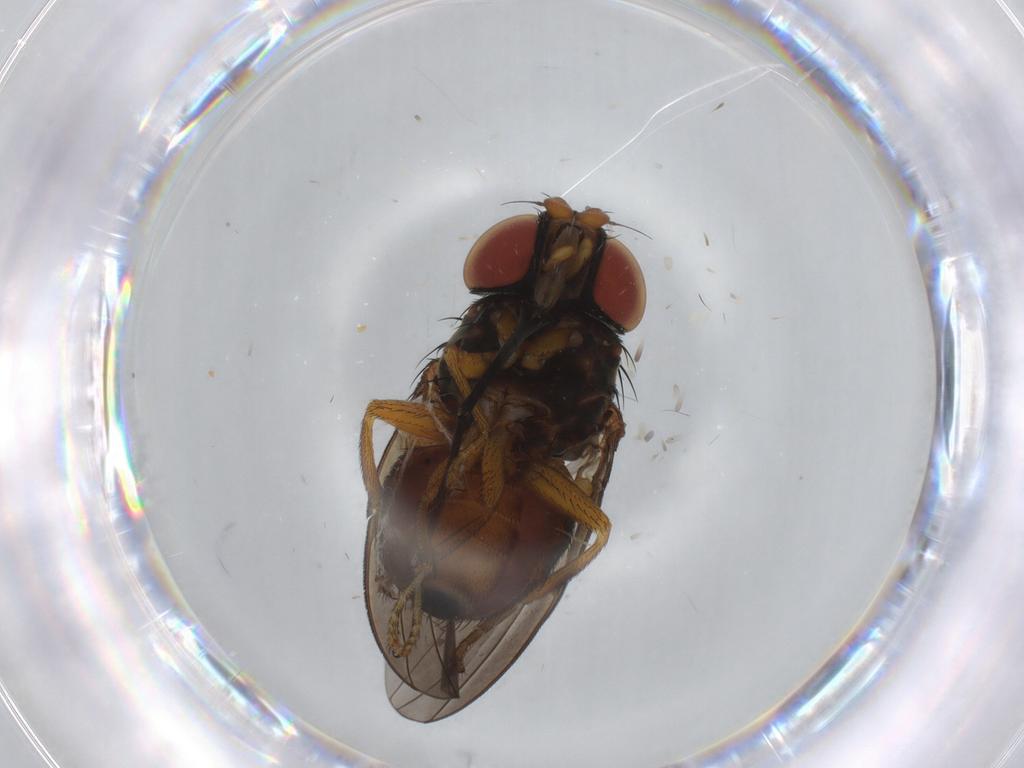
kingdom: Animalia
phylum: Arthropoda
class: Insecta
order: Diptera
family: Milichiidae
